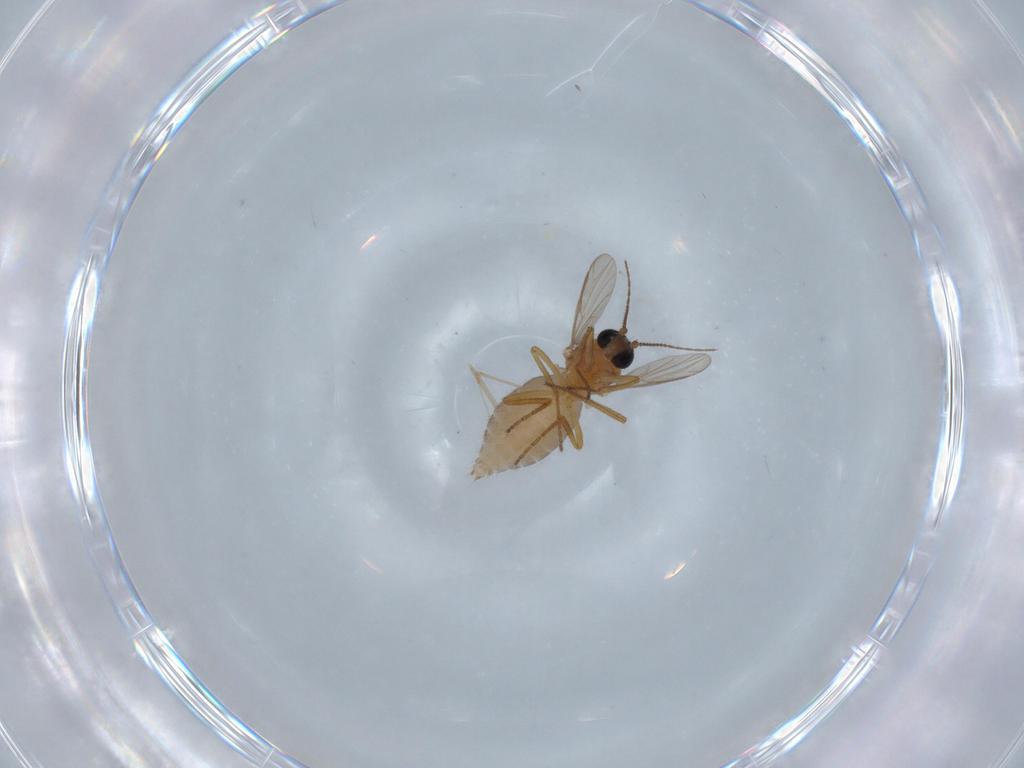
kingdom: Animalia
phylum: Arthropoda
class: Insecta
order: Diptera
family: Ceratopogonidae
